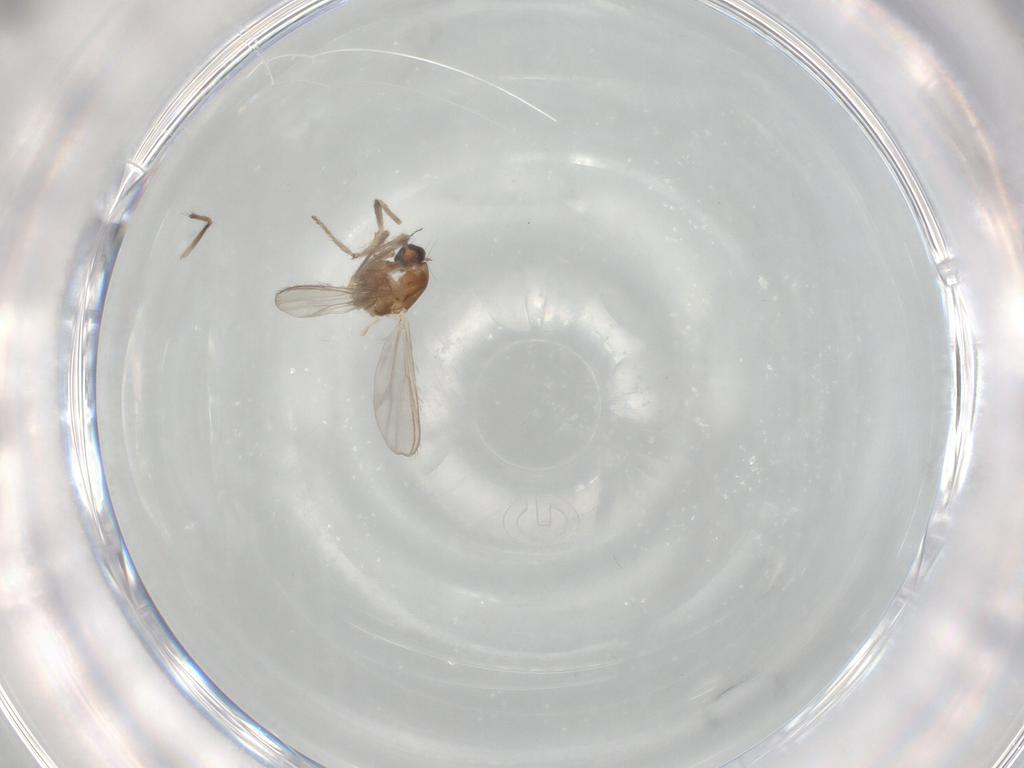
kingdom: Animalia
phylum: Arthropoda
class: Insecta
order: Diptera
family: Chironomidae
